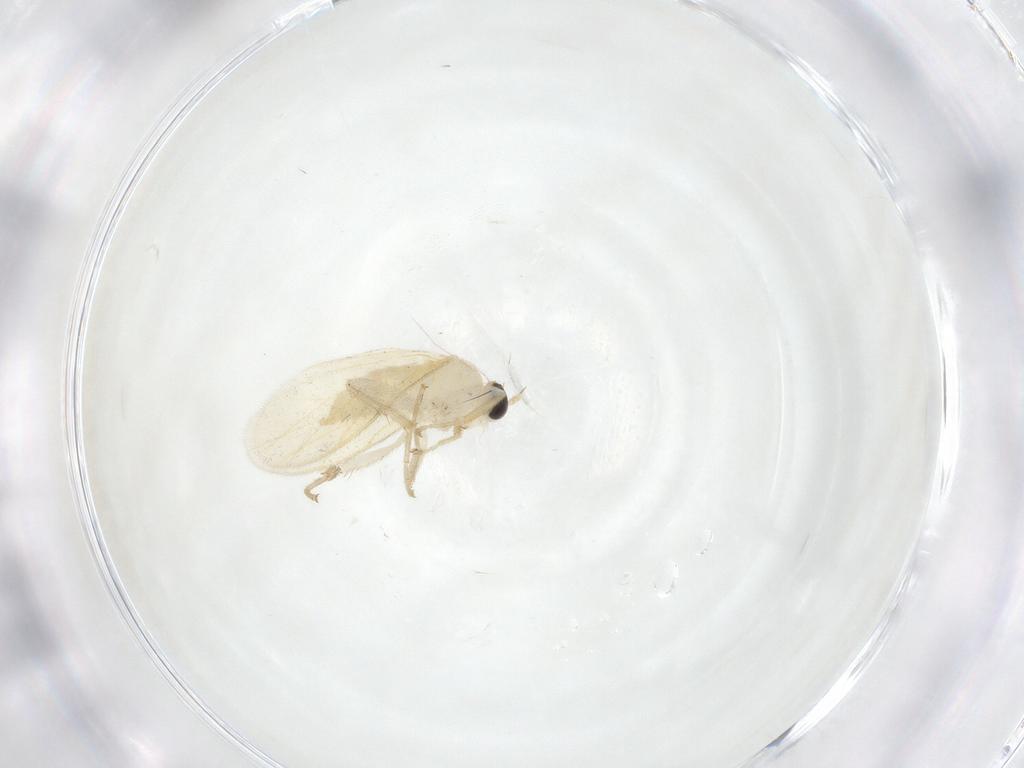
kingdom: Animalia
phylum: Arthropoda
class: Insecta
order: Diptera
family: Hybotidae
